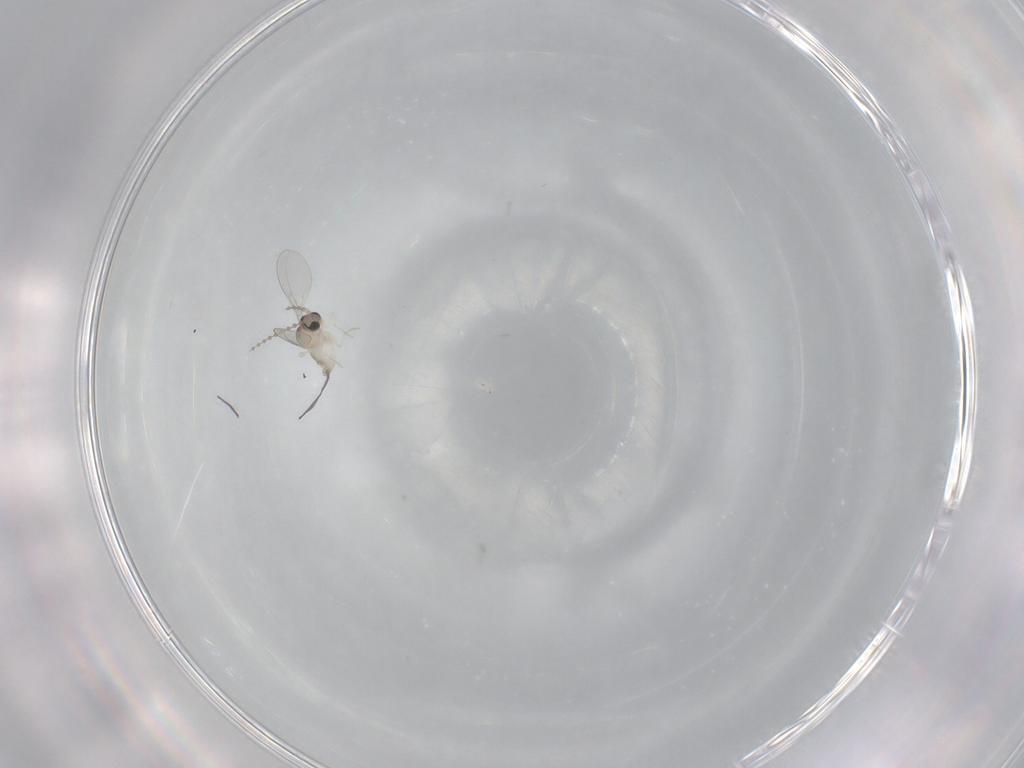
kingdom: Animalia
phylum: Arthropoda
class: Insecta
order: Diptera
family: Cecidomyiidae
